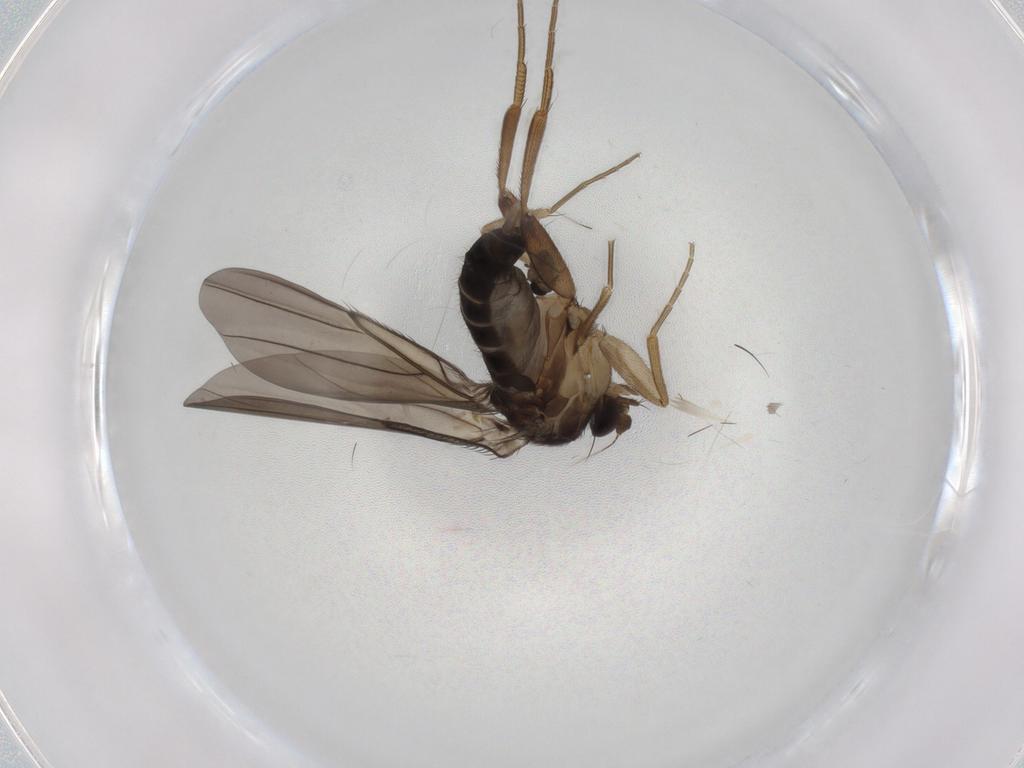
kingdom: Animalia
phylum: Arthropoda
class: Insecta
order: Diptera
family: Phoridae
